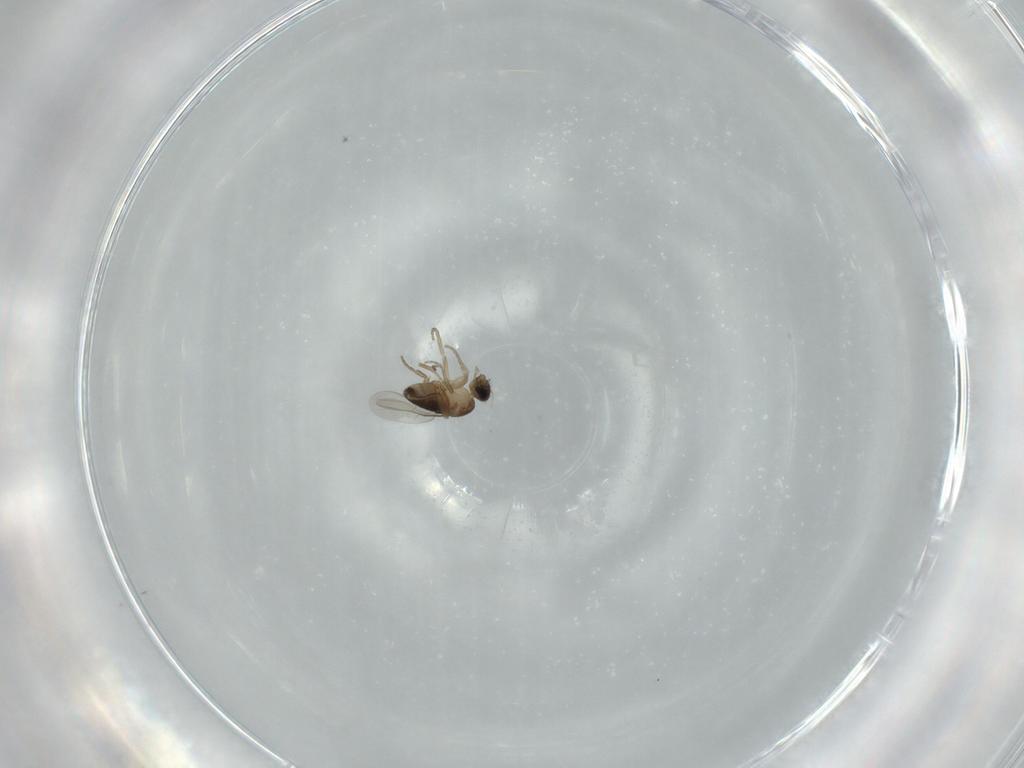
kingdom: Animalia
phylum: Arthropoda
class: Insecta
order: Diptera
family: Phoridae
